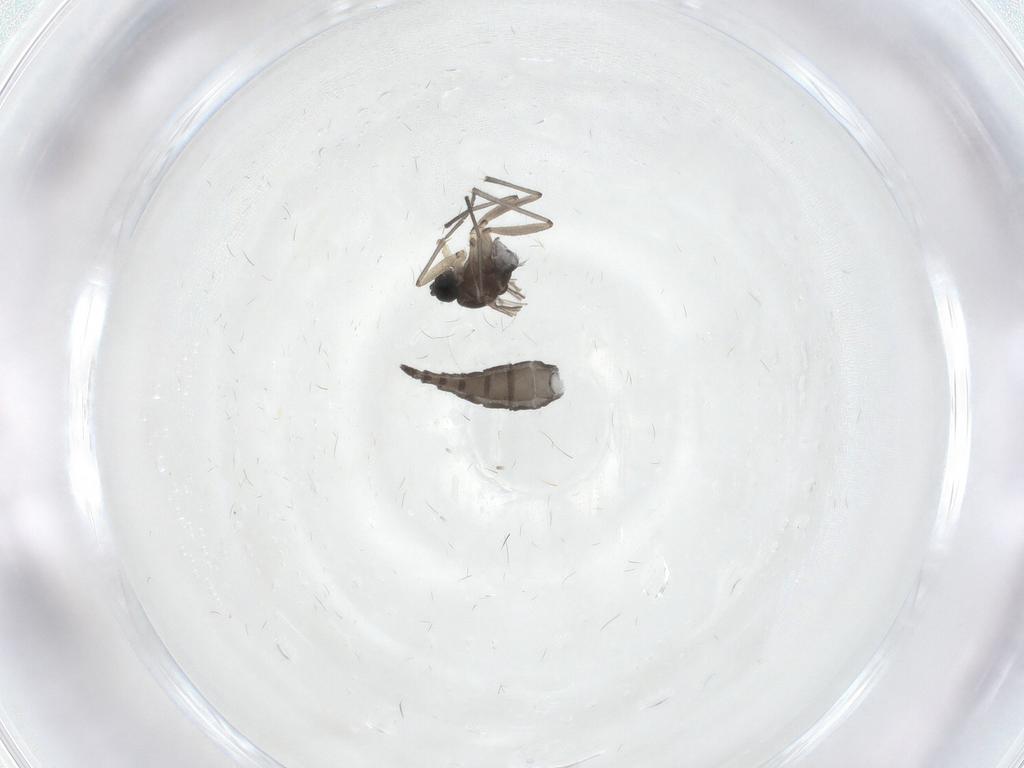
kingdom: Animalia
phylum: Arthropoda
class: Insecta
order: Diptera
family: Sciaridae
